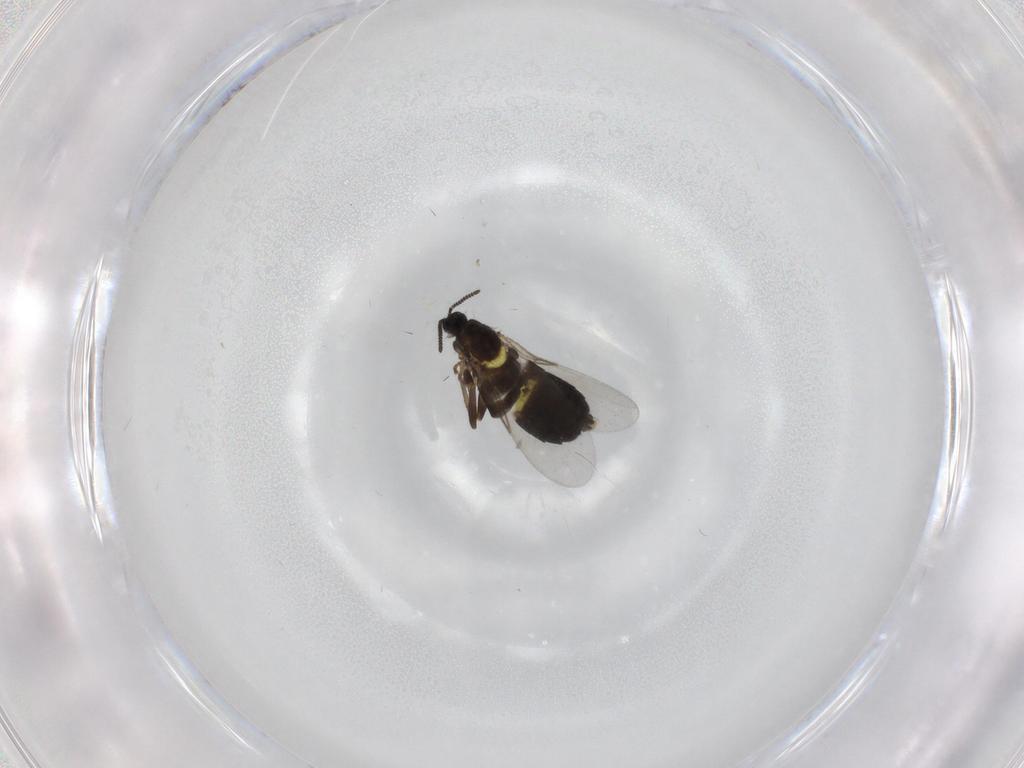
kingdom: Animalia
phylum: Arthropoda
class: Insecta
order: Diptera
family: Scatopsidae
